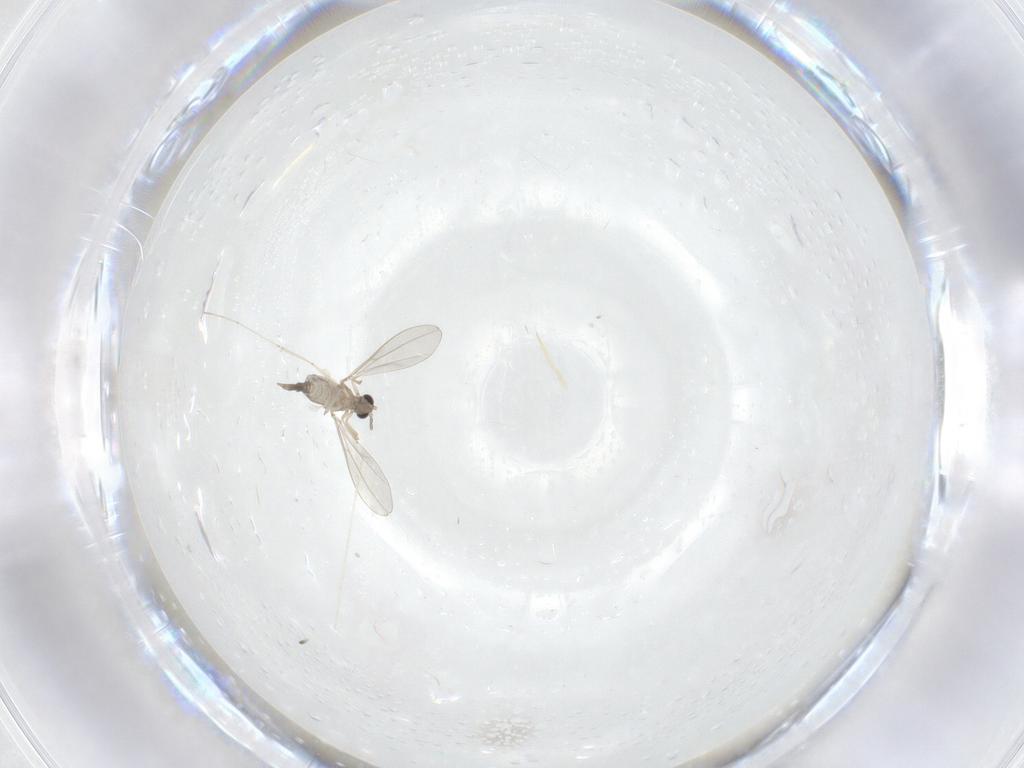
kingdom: Animalia
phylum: Arthropoda
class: Insecta
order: Diptera
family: Cecidomyiidae
